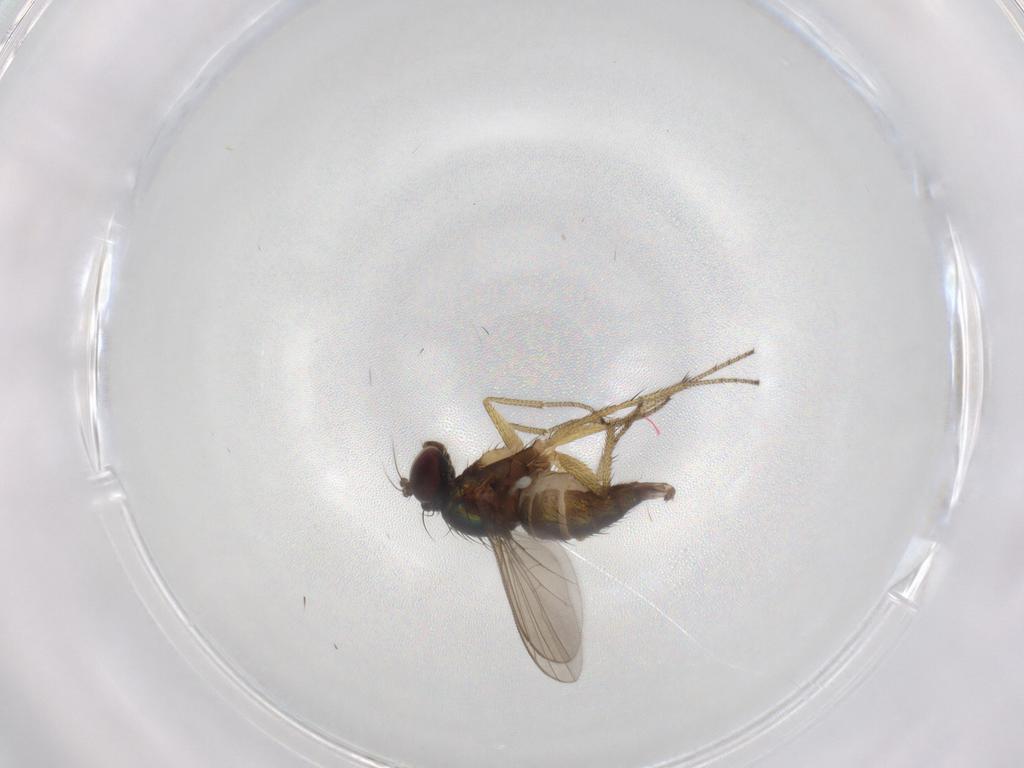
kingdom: Animalia
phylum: Arthropoda
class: Insecta
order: Diptera
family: Dolichopodidae
